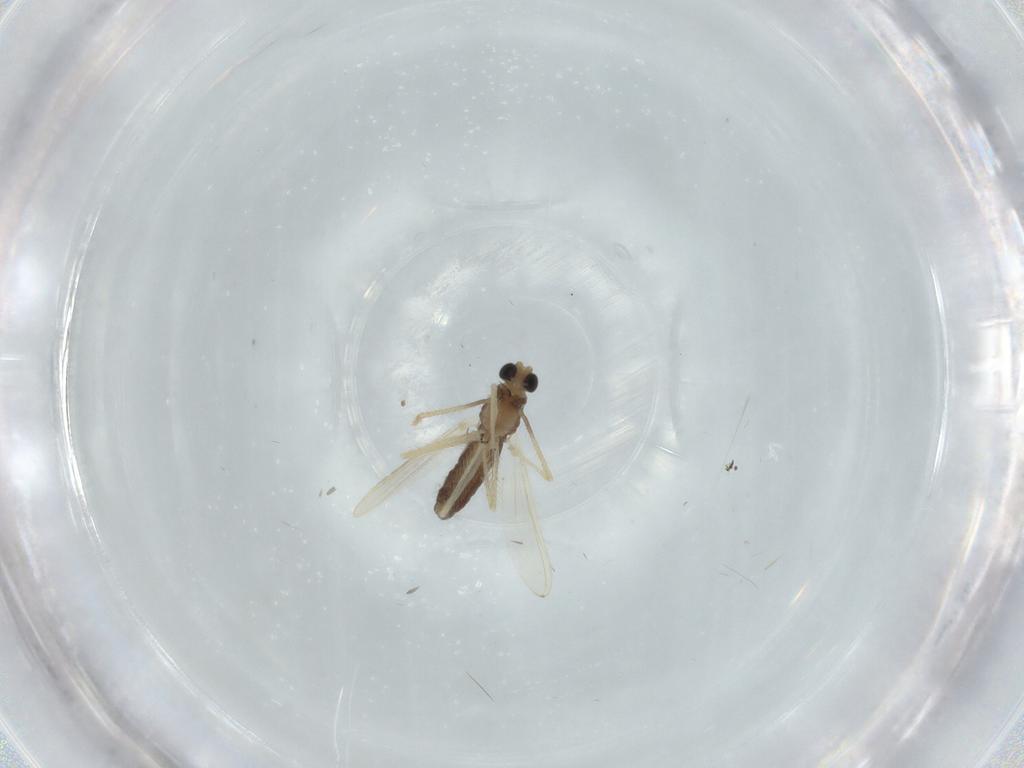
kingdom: Animalia
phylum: Arthropoda
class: Insecta
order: Diptera
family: Chironomidae
